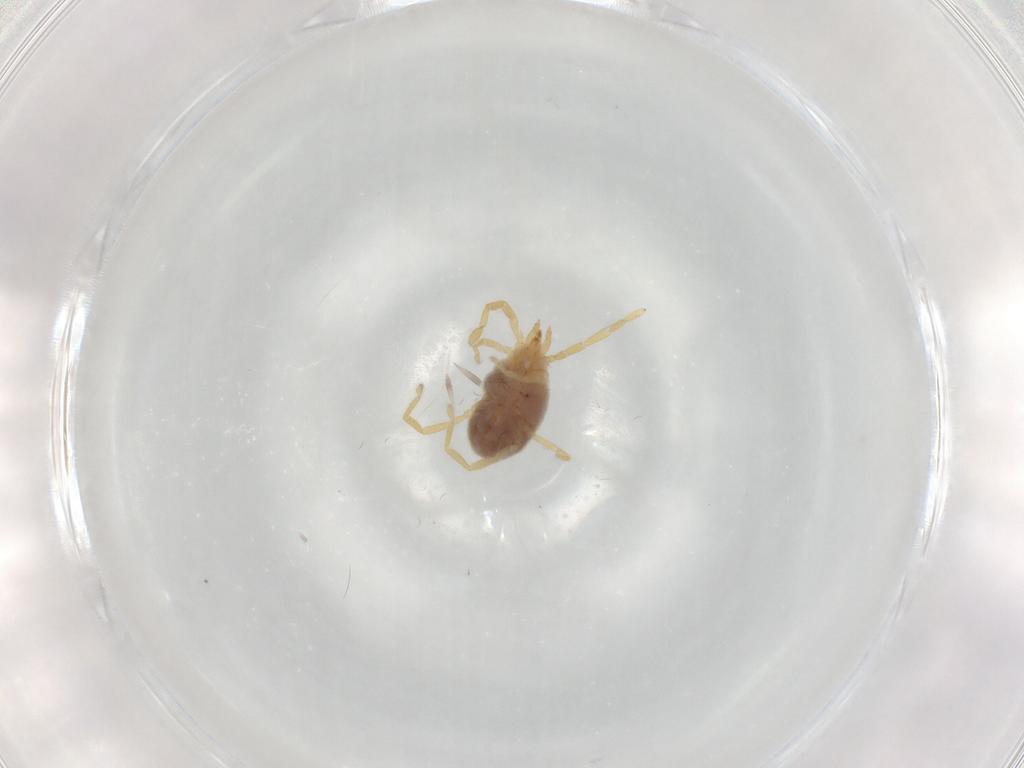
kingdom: Animalia
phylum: Arthropoda
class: Arachnida
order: Trombidiformes
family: Erythraeidae
